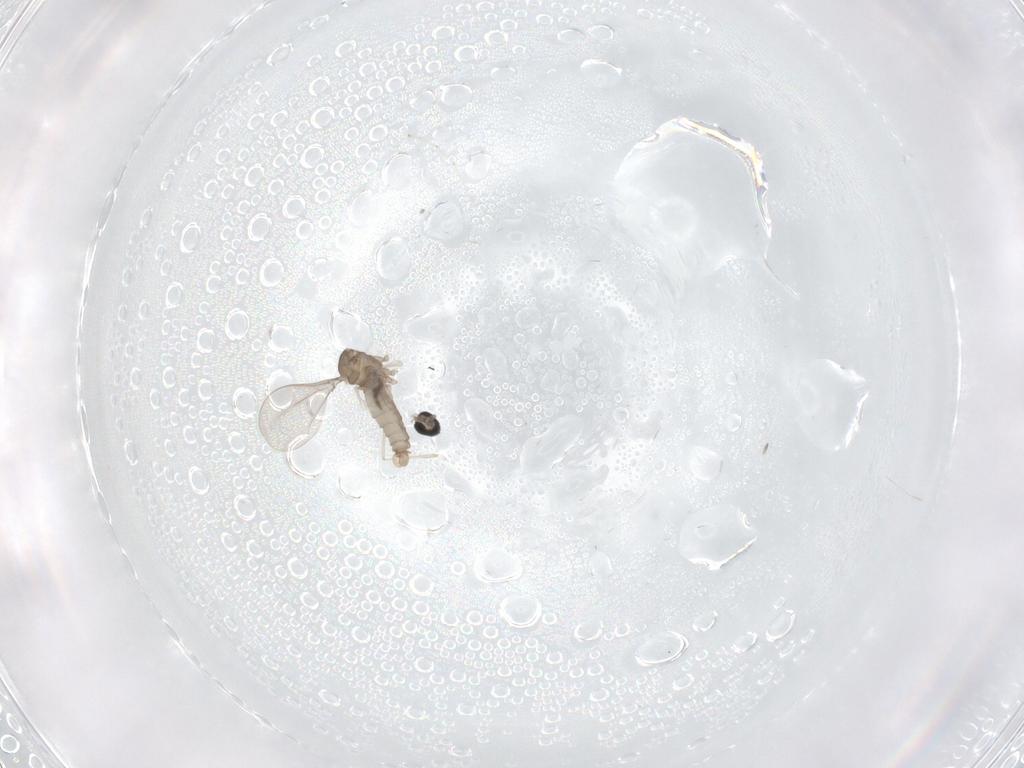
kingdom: Animalia
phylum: Arthropoda
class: Insecta
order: Diptera
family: Cecidomyiidae
